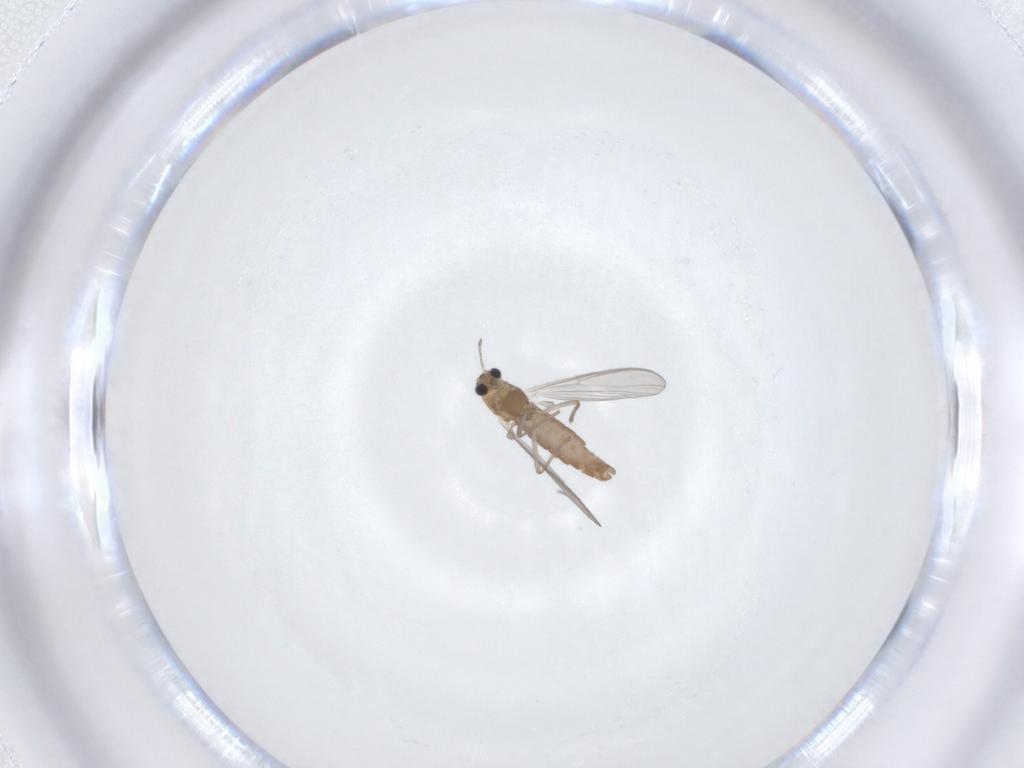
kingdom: Animalia
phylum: Arthropoda
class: Insecta
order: Diptera
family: Chironomidae
